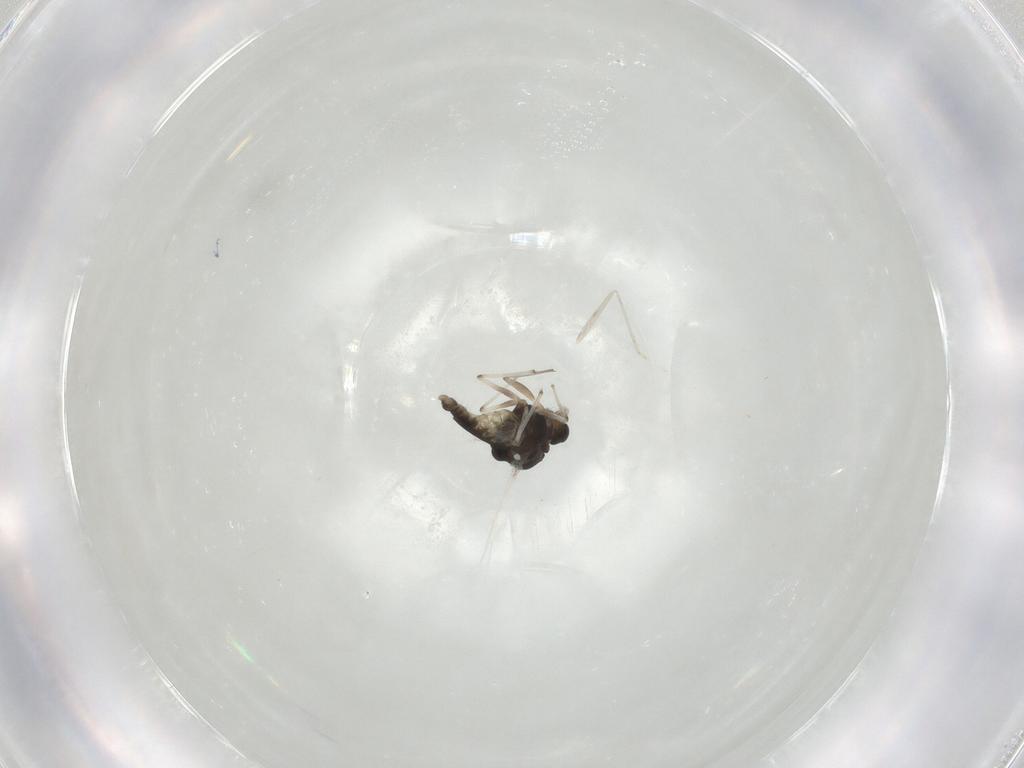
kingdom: Animalia
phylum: Arthropoda
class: Insecta
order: Diptera
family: Chironomidae
